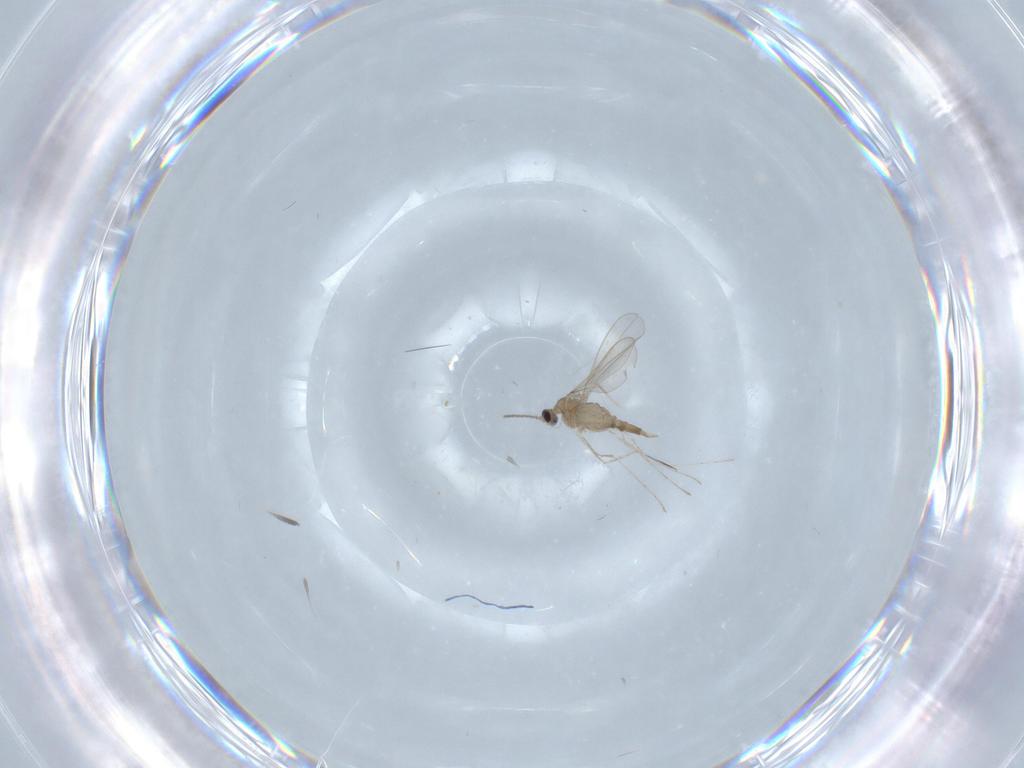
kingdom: Animalia
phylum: Arthropoda
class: Insecta
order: Diptera
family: Cecidomyiidae
